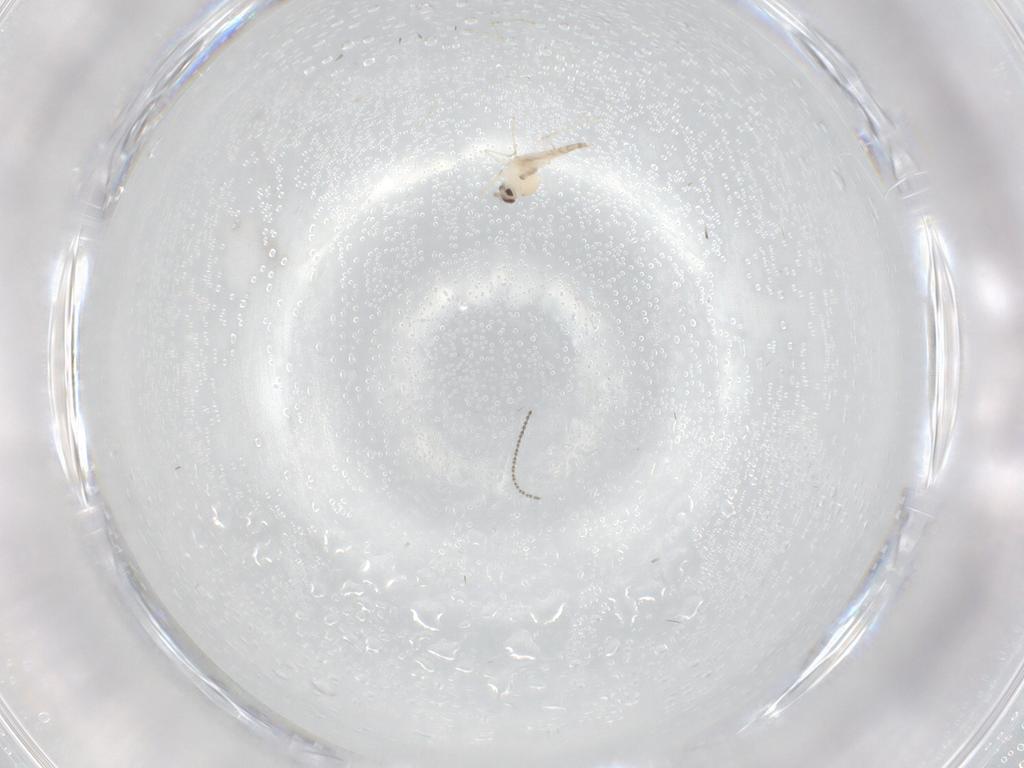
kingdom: Animalia
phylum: Arthropoda
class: Insecta
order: Diptera
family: Cecidomyiidae
